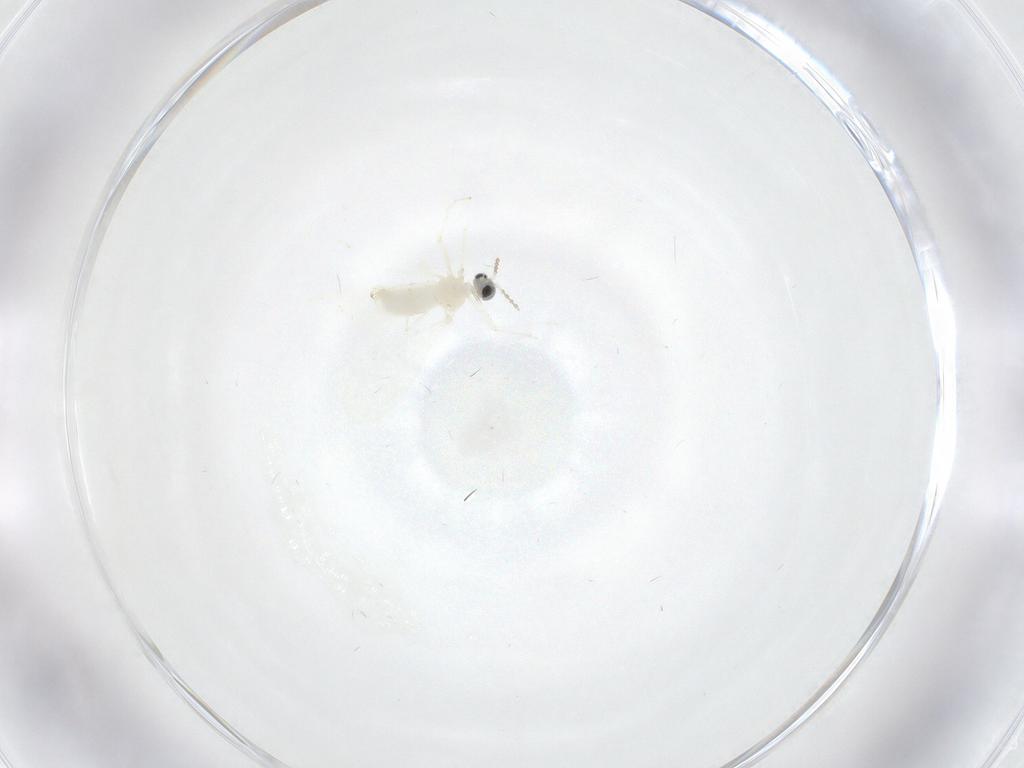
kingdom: Animalia
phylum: Arthropoda
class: Insecta
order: Diptera
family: Cecidomyiidae
